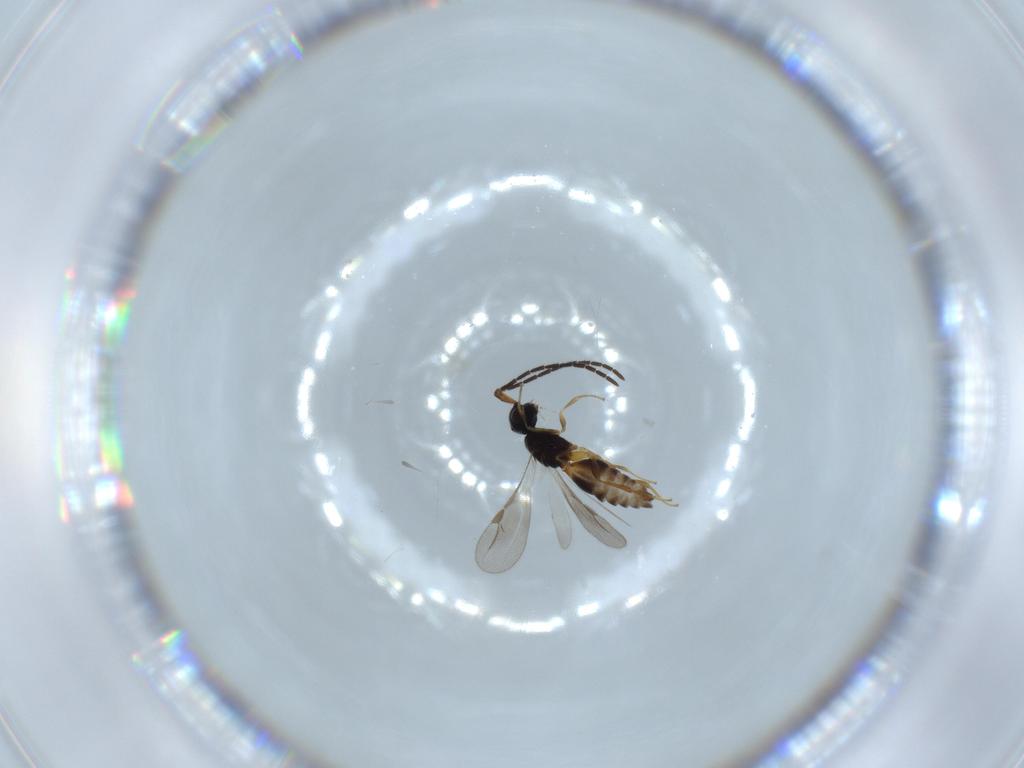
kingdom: Animalia
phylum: Arthropoda
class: Insecta
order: Hymenoptera
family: Megaspilidae
